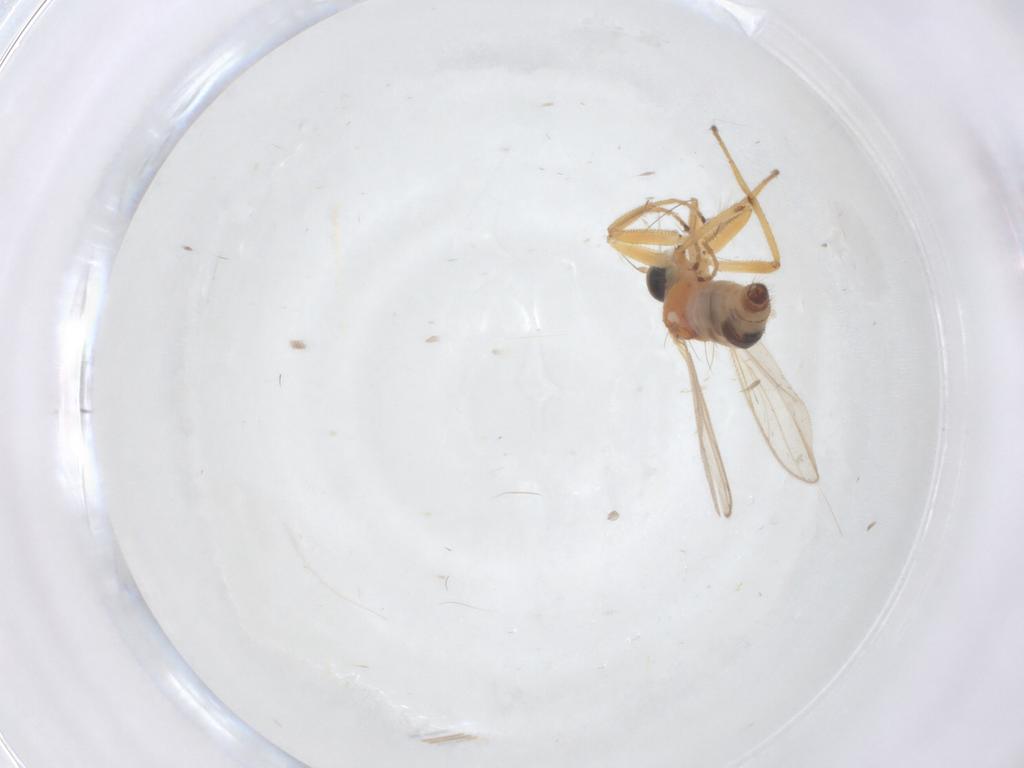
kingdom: Animalia
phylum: Arthropoda
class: Insecta
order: Diptera
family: Hybotidae
